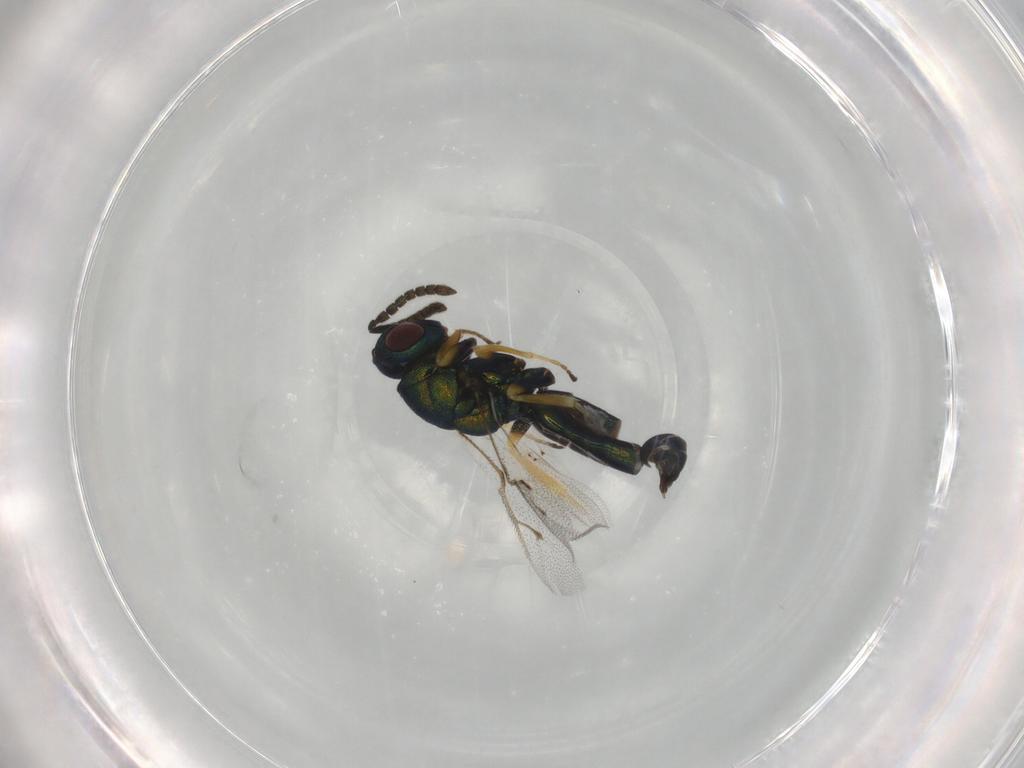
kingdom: Animalia
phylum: Arthropoda
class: Insecta
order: Hymenoptera
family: Pteromalidae
